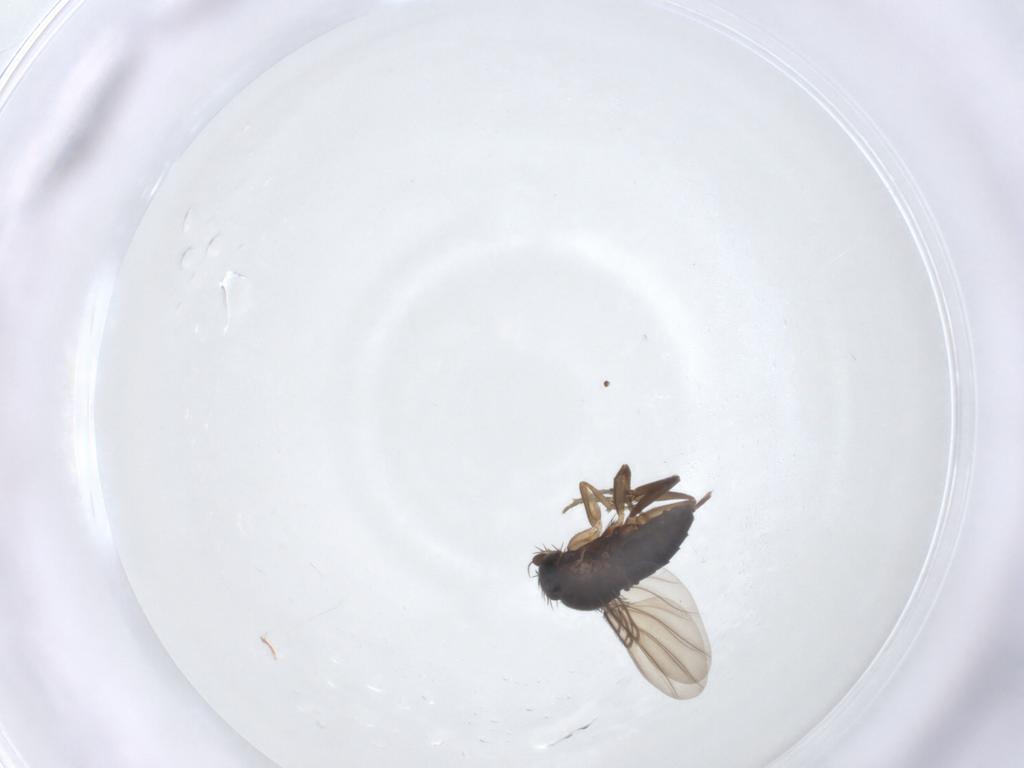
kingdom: Animalia
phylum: Arthropoda
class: Insecta
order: Diptera
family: Phoridae
